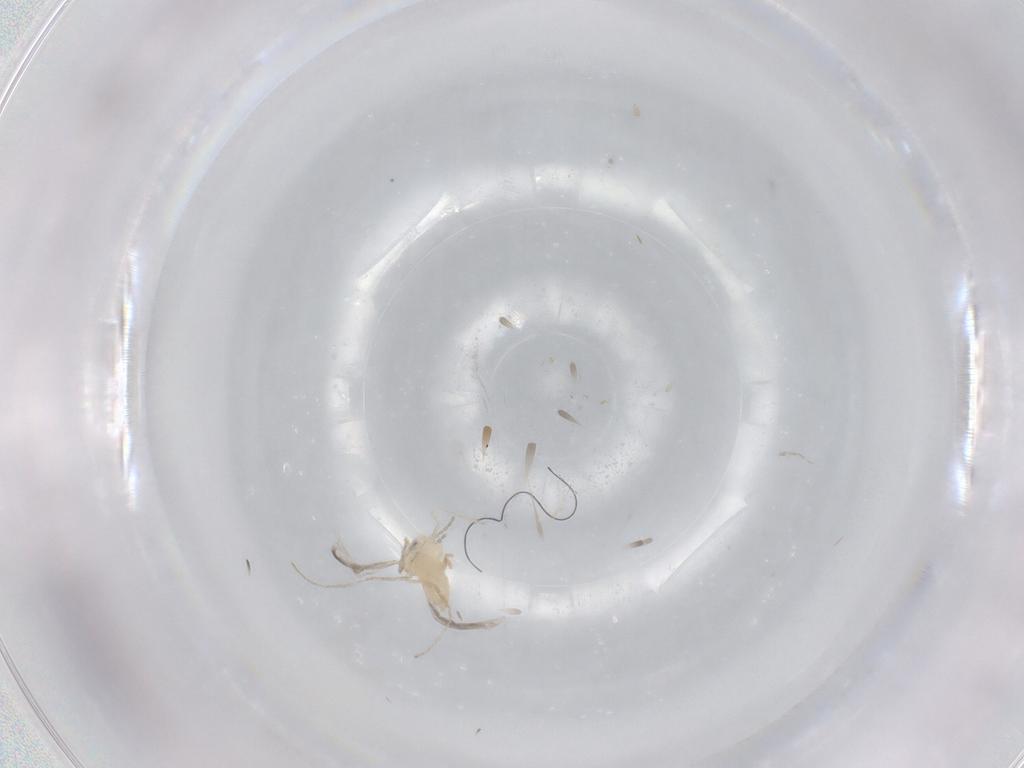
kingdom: Animalia
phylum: Arthropoda
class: Insecta
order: Diptera
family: Cecidomyiidae
